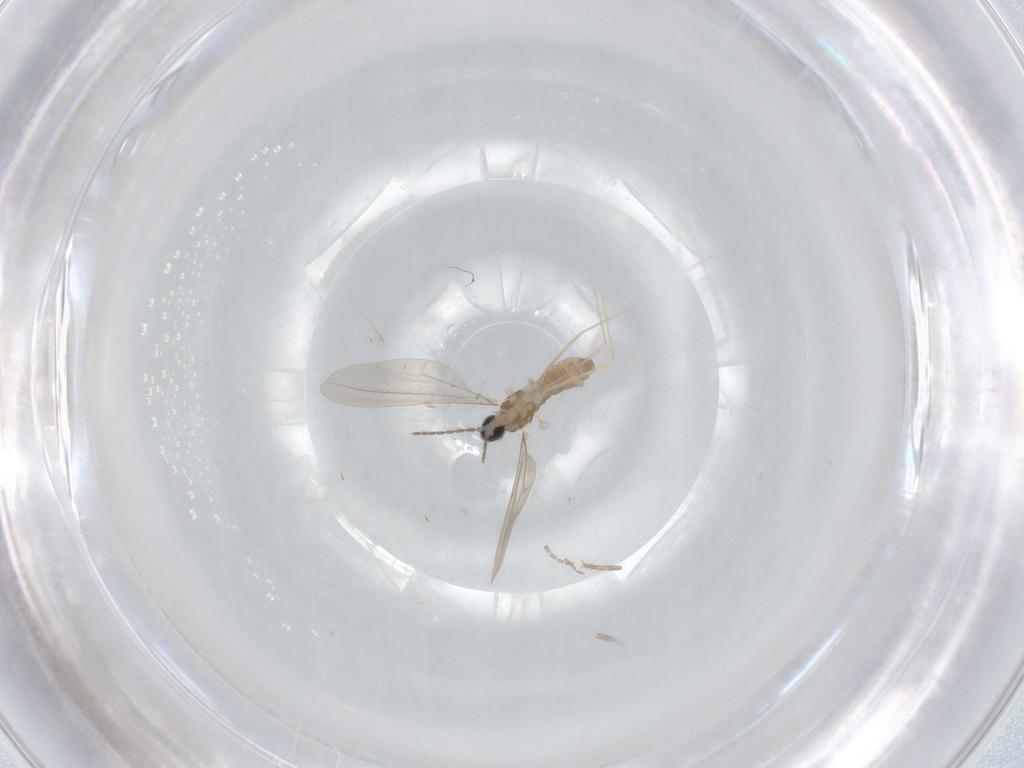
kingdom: Animalia
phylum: Arthropoda
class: Insecta
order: Diptera
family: Cecidomyiidae
